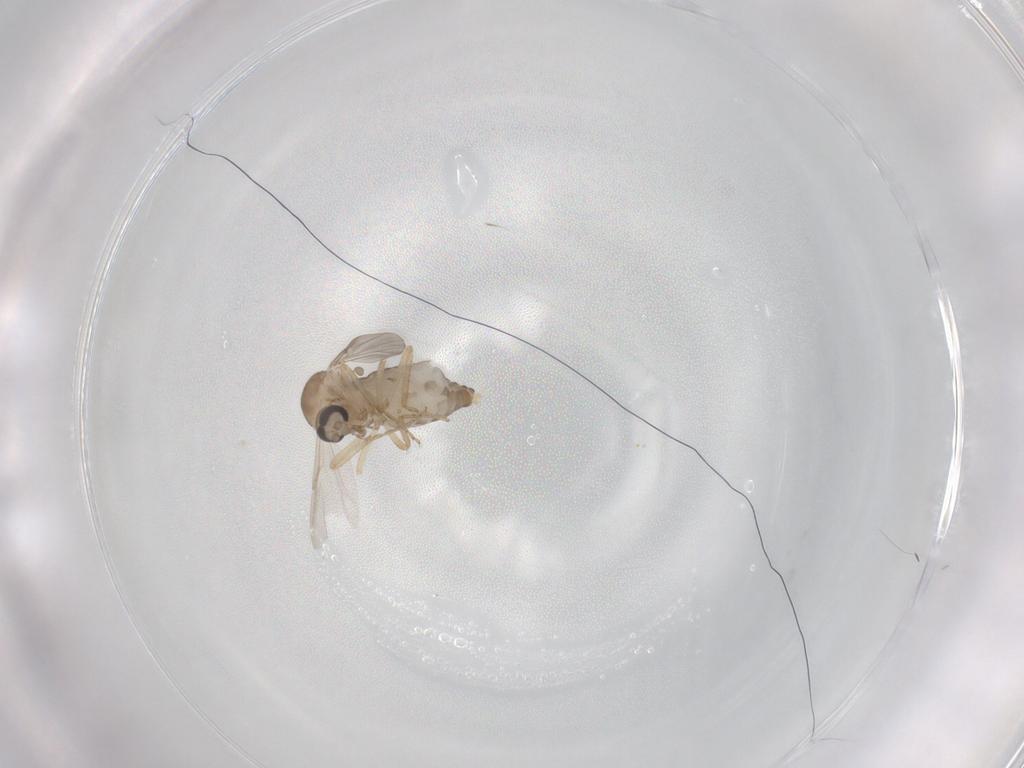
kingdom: Animalia
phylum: Arthropoda
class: Insecta
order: Diptera
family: Ceratopogonidae
